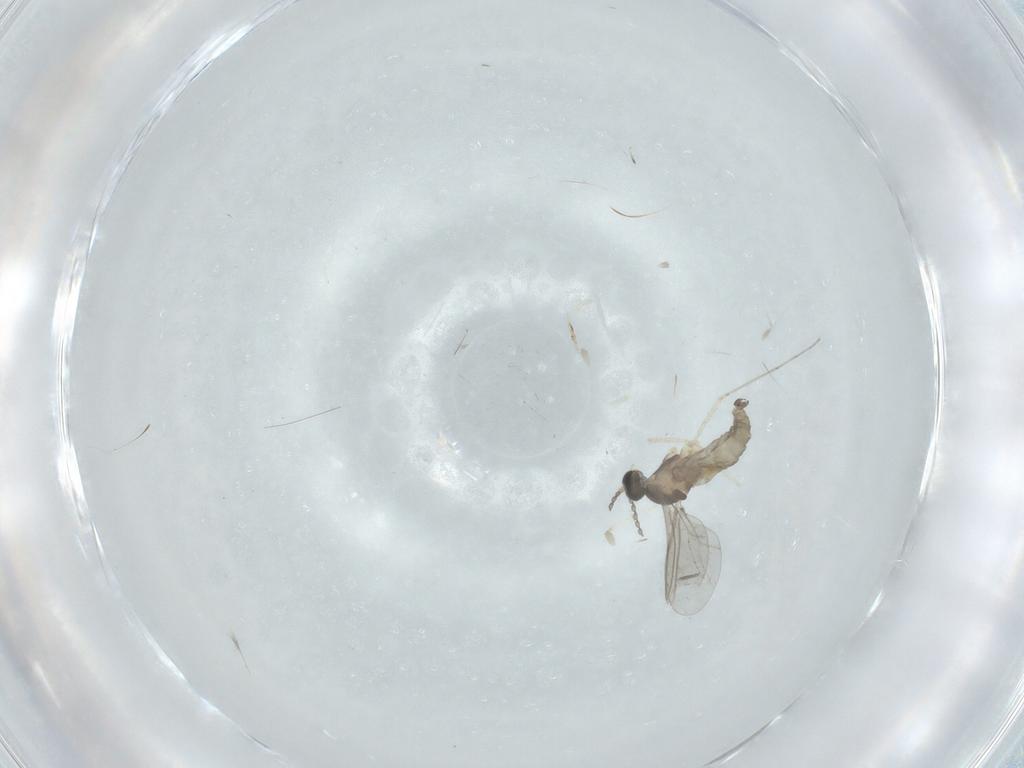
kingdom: Animalia
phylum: Arthropoda
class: Insecta
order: Diptera
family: Cecidomyiidae
